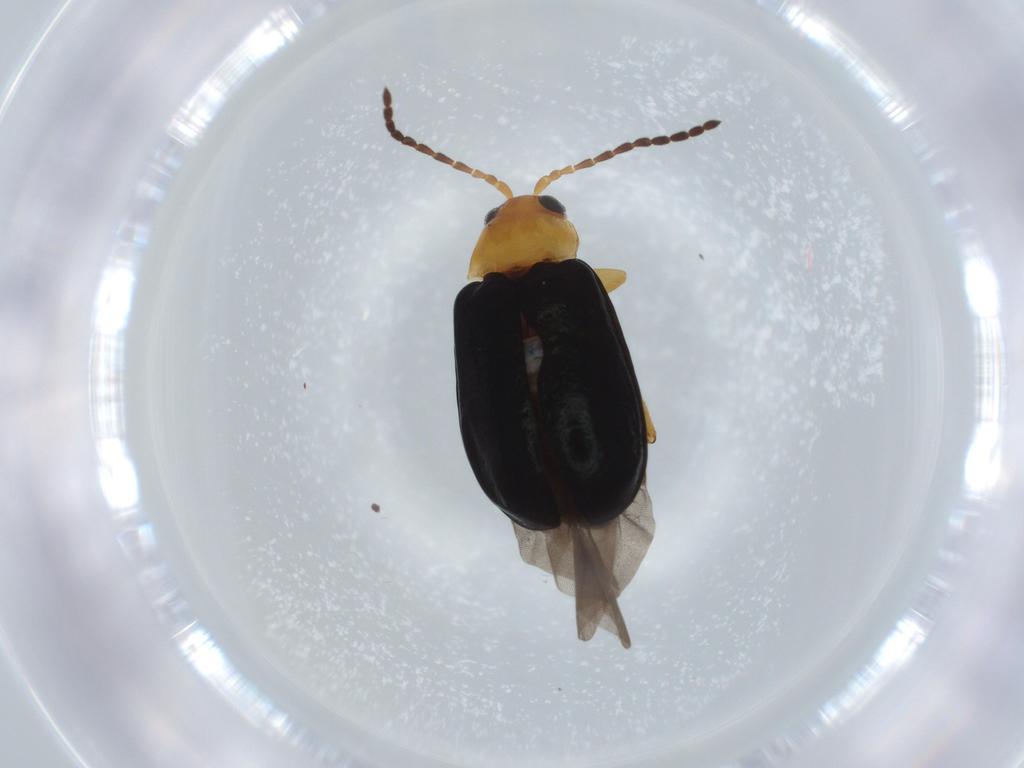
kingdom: Animalia
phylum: Arthropoda
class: Insecta
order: Coleoptera
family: Chrysomelidae
